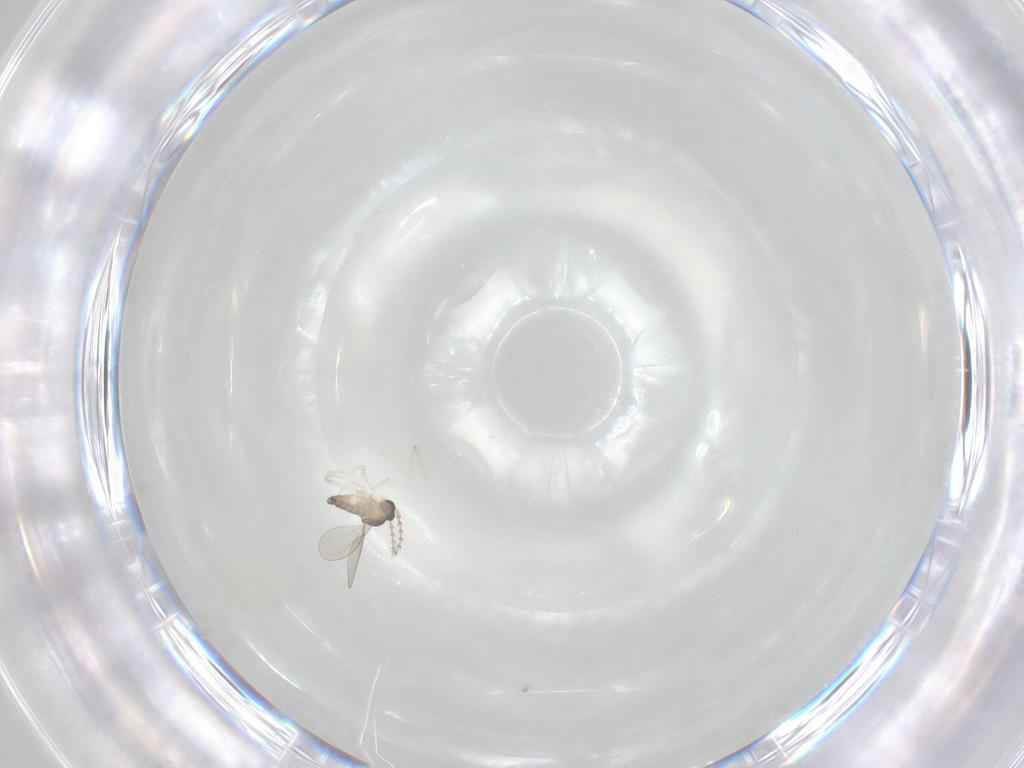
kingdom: Animalia
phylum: Arthropoda
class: Insecta
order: Diptera
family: Cecidomyiidae
